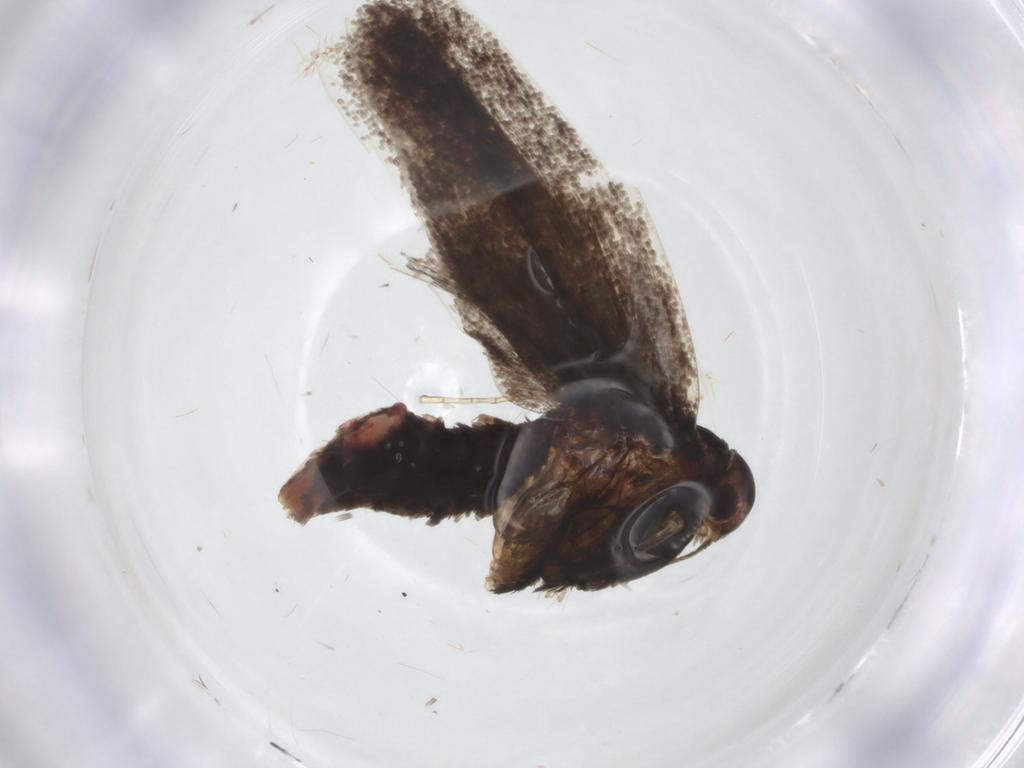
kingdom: Animalia
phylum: Arthropoda
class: Insecta
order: Lepidoptera
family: Lecithoceridae
